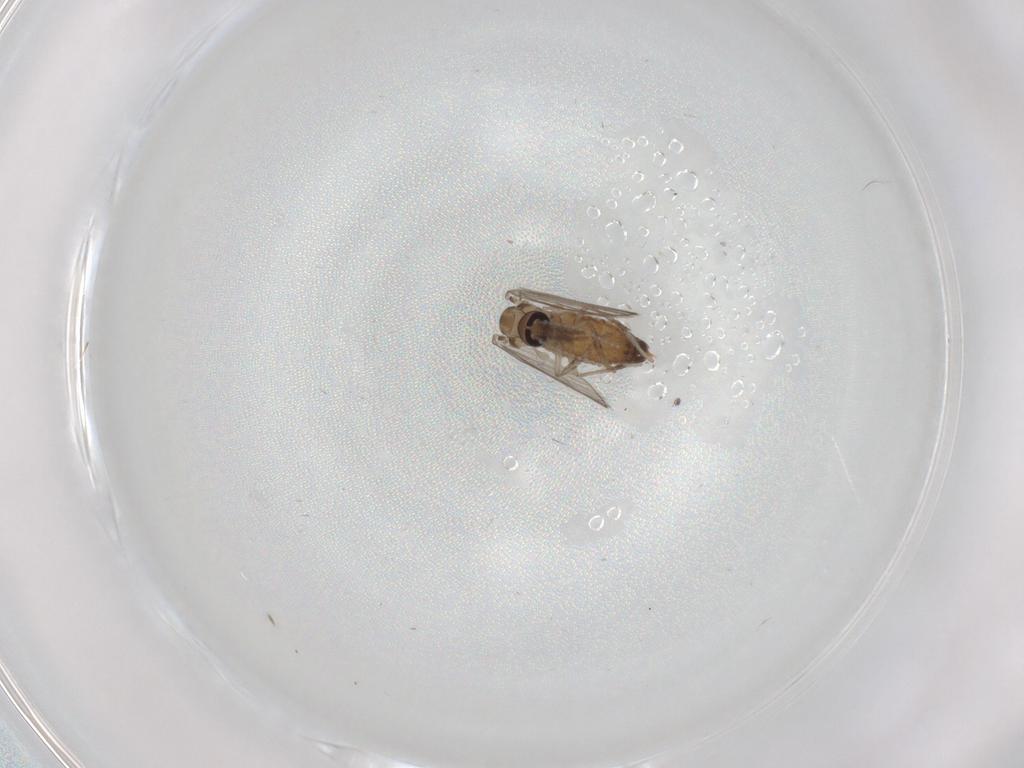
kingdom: Animalia
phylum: Arthropoda
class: Insecta
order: Diptera
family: Psychodidae
